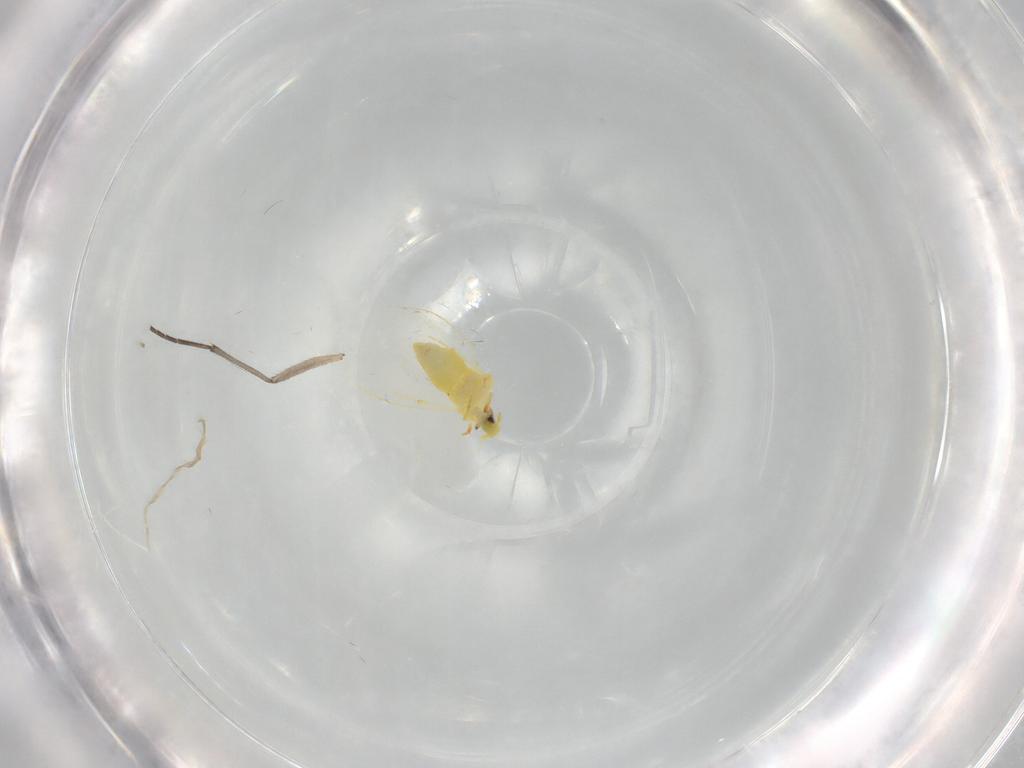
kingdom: Animalia
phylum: Arthropoda
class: Insecta
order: Hemiptera
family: Aleyrodidae
